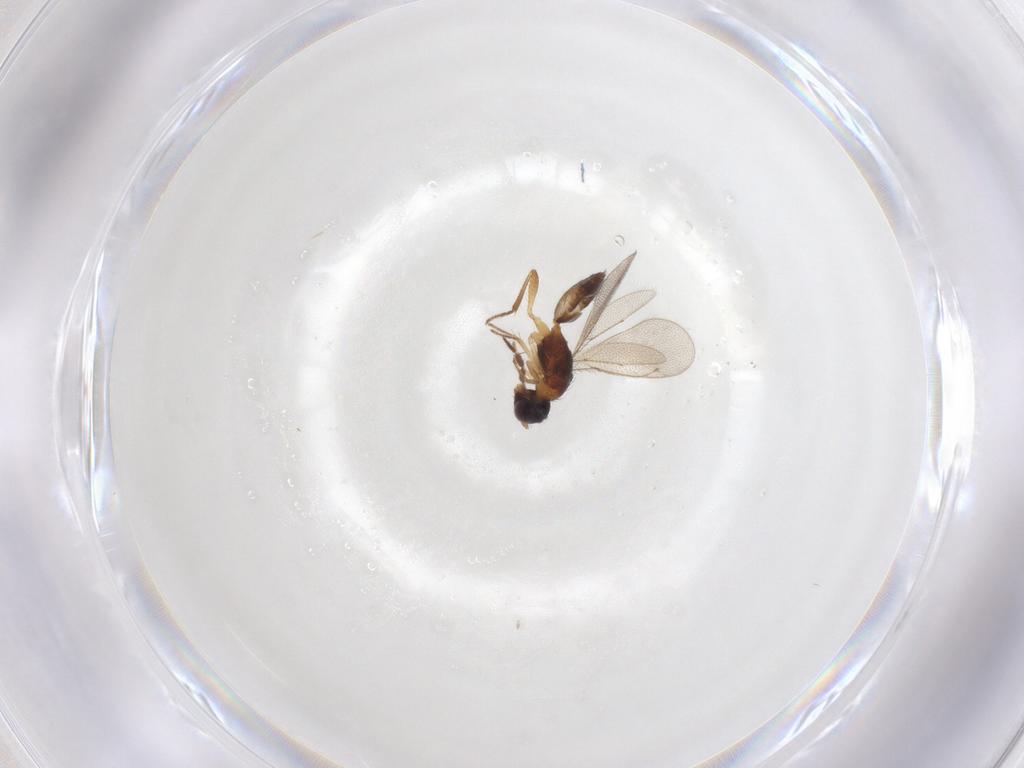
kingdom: Animalia
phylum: Arthropoda
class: Insecta
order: Hymenoptera
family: Eulophidae
